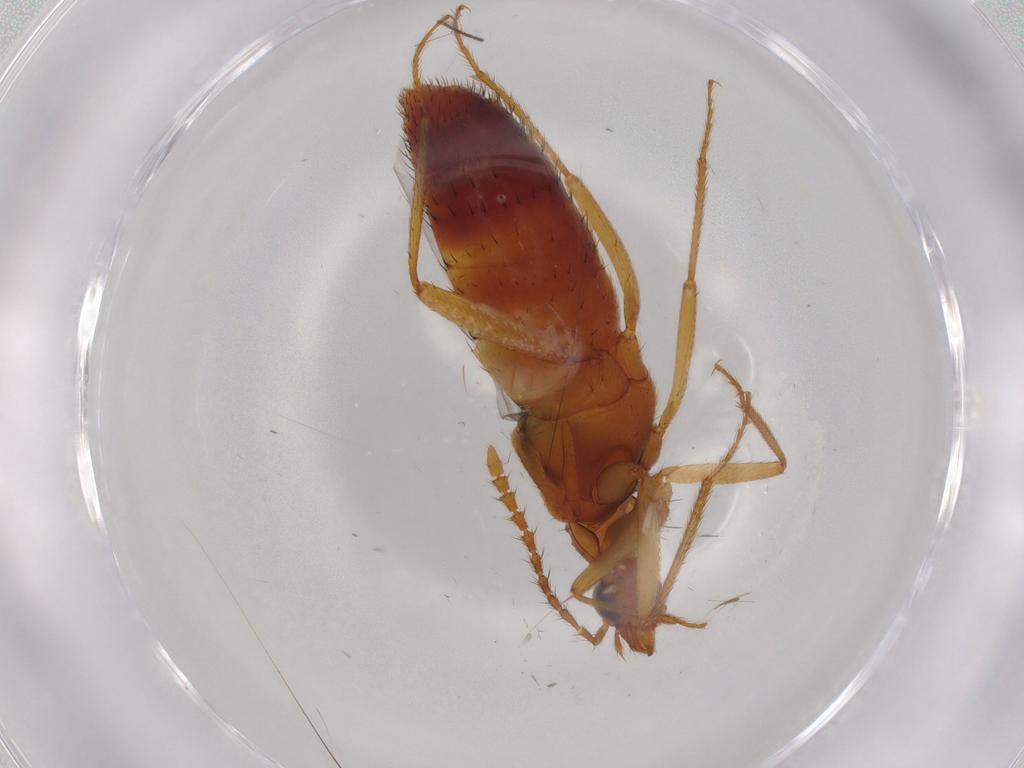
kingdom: Animalia
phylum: Arthropoda
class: Insecta
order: Coleoptera
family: Staphylinidae
